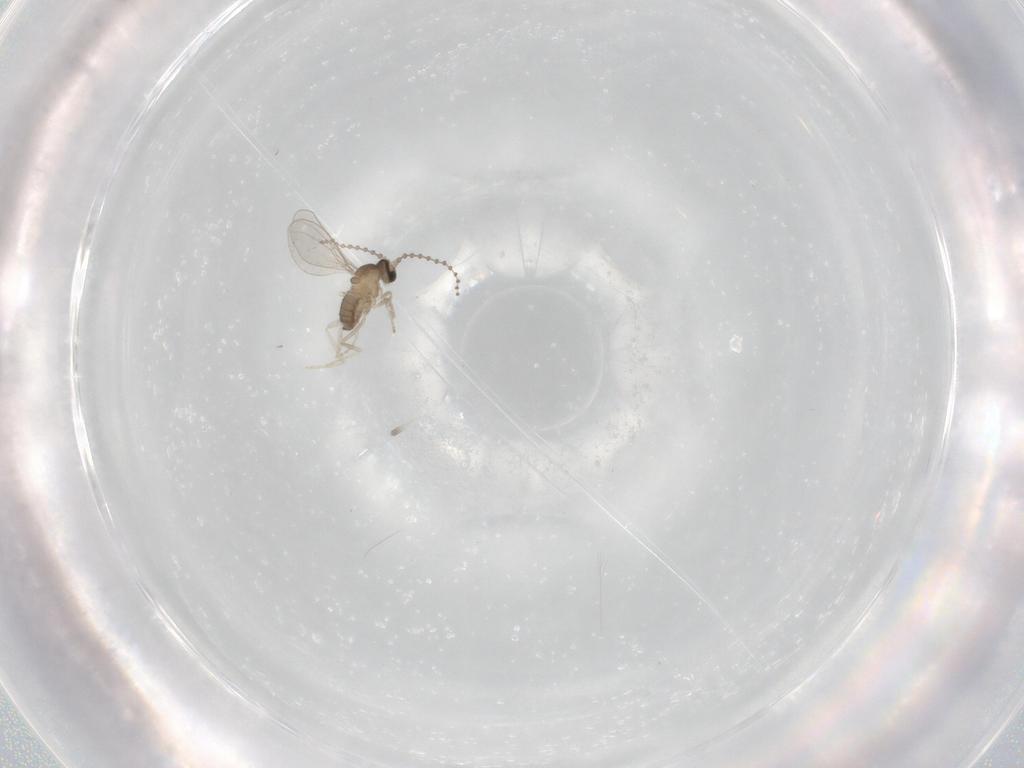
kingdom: Animalia
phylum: Arthropoda
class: Insecta
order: Diptera
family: Cecidomyiidae
